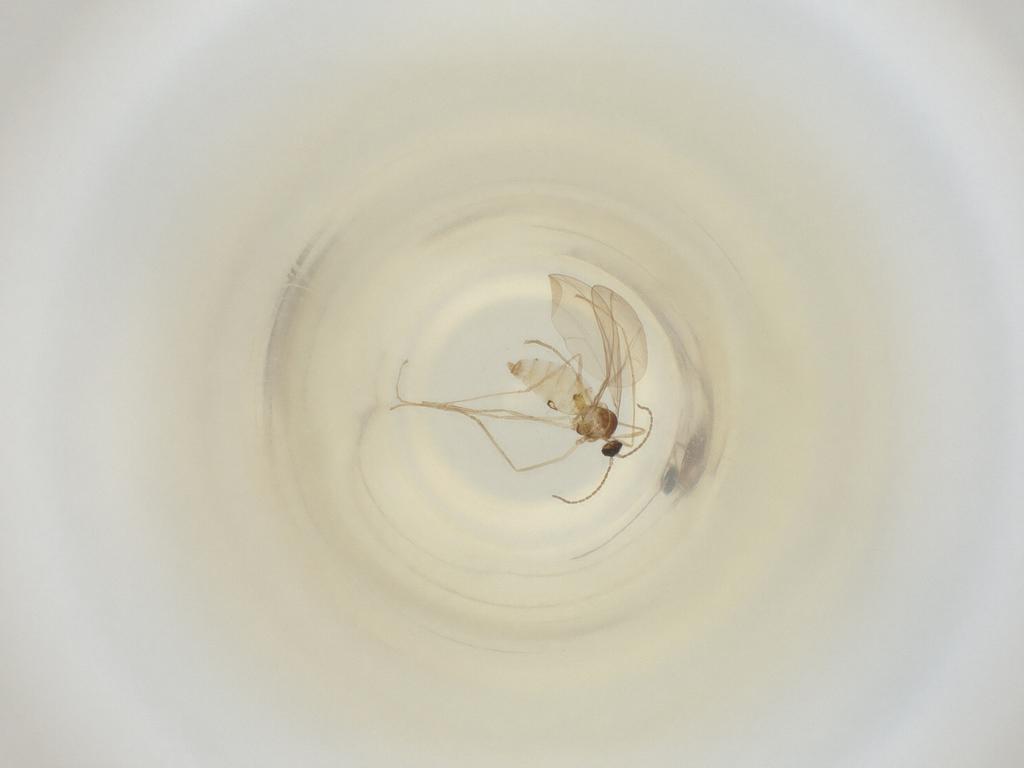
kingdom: Animalia
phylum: Arthropoda
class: Insecta
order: Diptera
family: Cecidomyiidae
